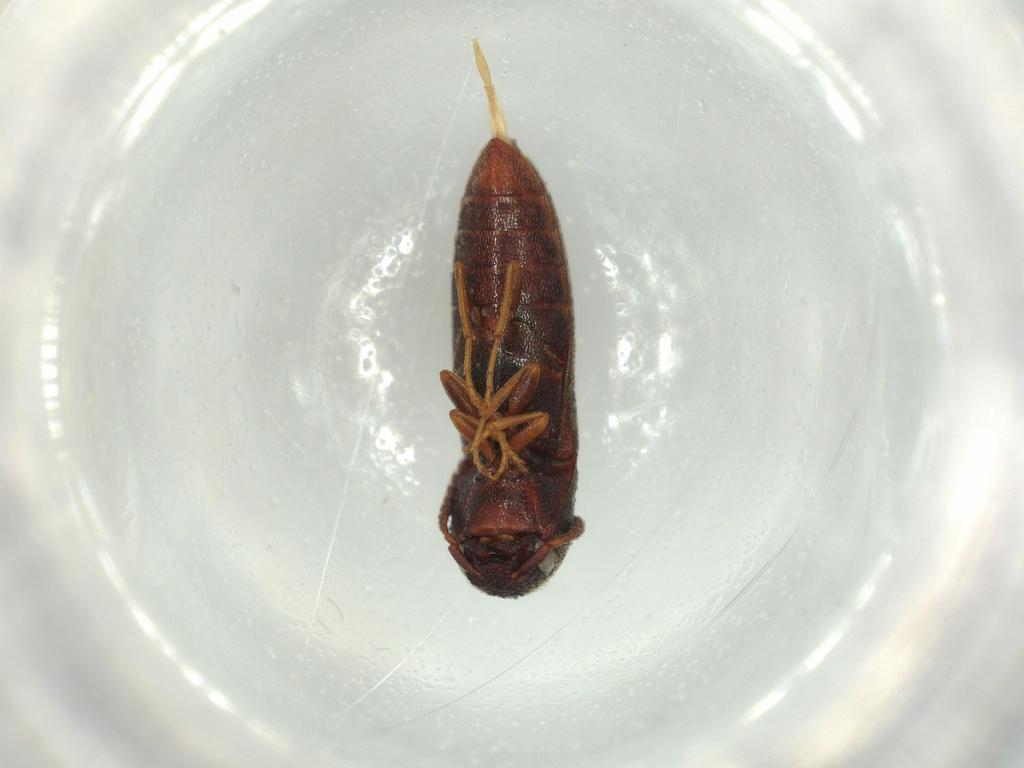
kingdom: Animalia
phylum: Arthropoda
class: Insecta
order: Coleoptera
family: Eucnemidae
